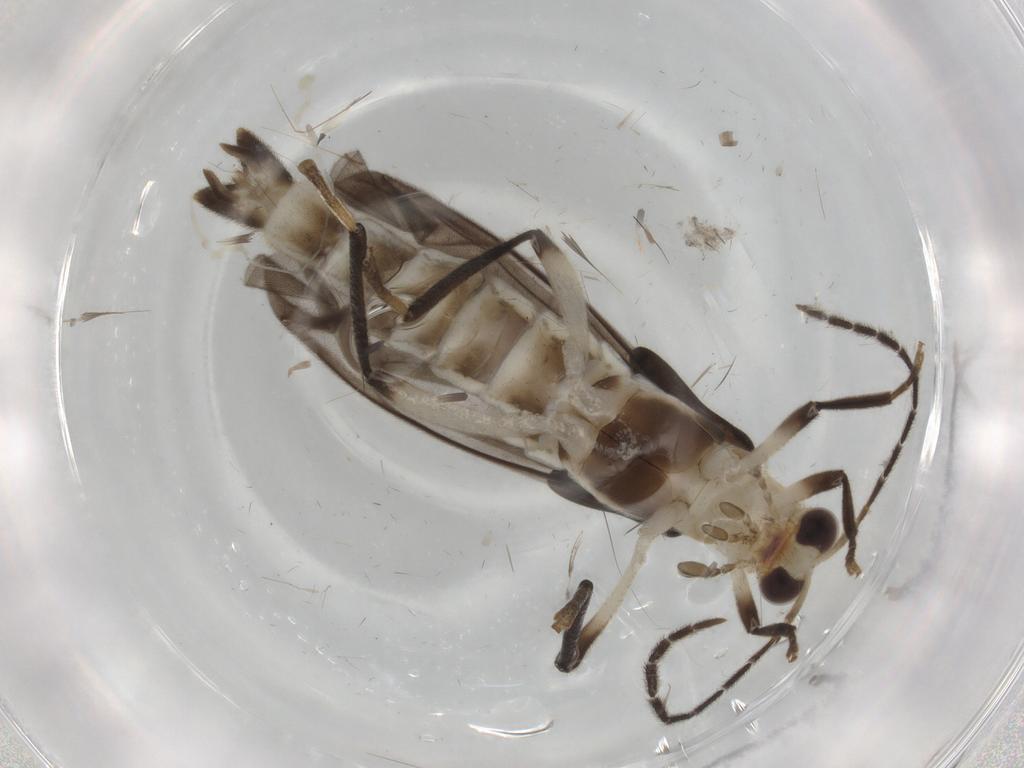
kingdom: Animalia
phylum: Arthropoda
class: Insecta
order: Coleoptera
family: Cantharidae
